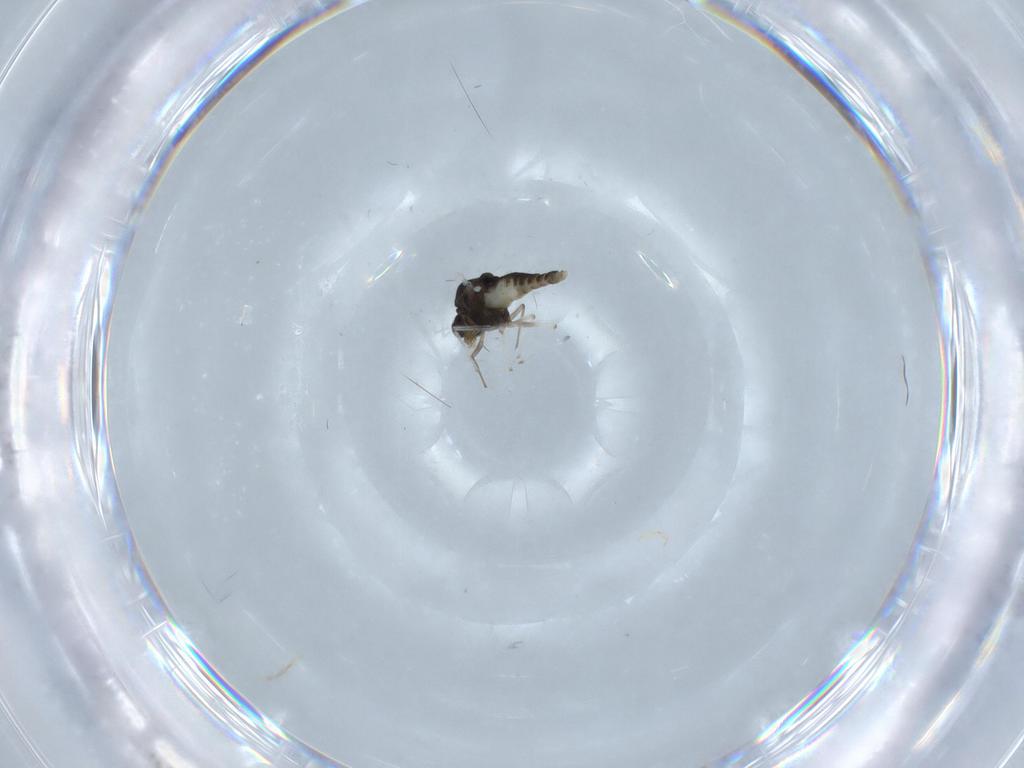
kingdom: Animalia
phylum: Arthropoda
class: Insecta
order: Diptera
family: Chironomidae
